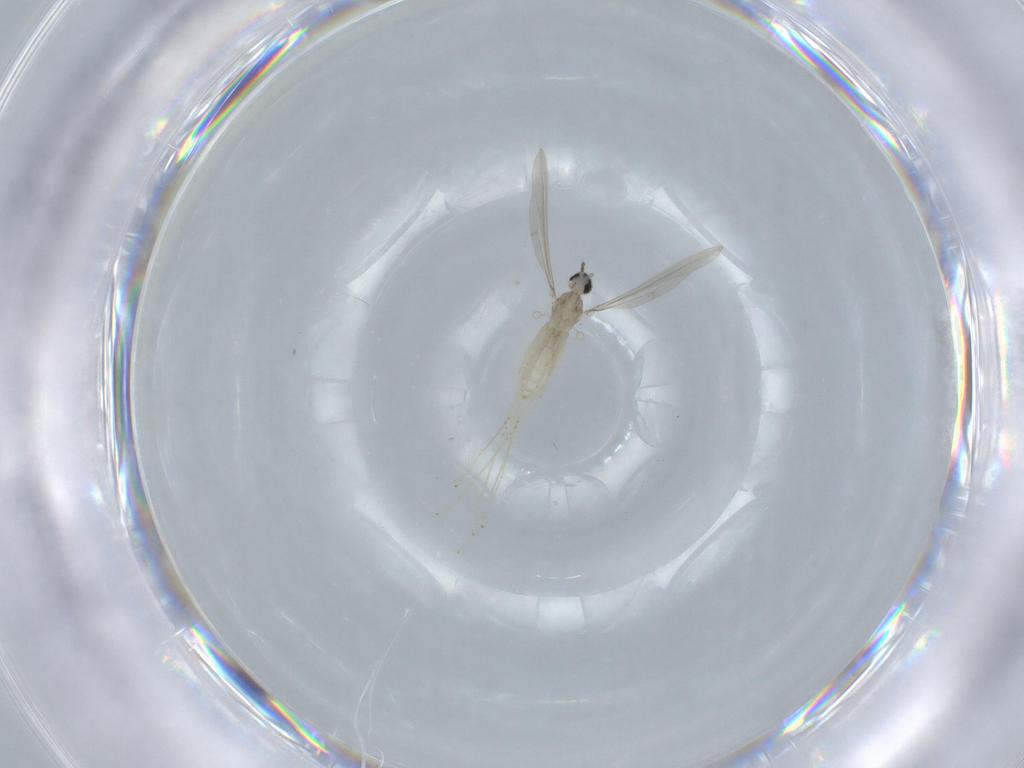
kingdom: Animalia
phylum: Arthropoda
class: Insecta
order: Diptera
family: Cecidomyiidae
